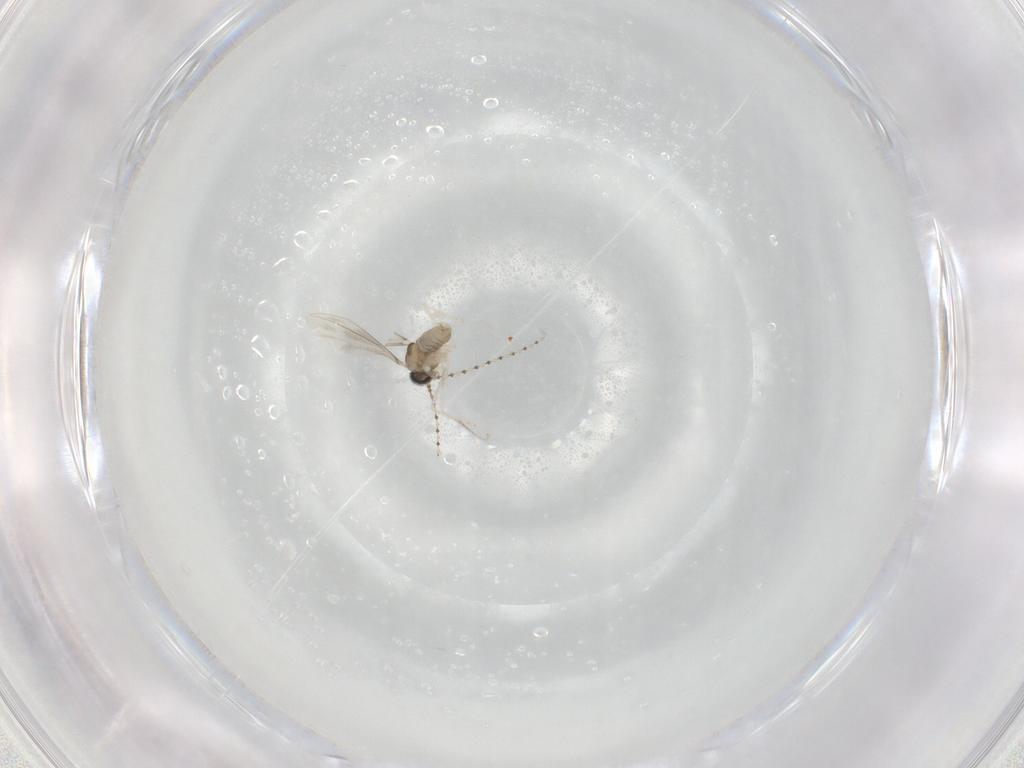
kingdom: Animalia
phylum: Arthropoda
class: Insecta
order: Diptera
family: Cecidomyiidae
